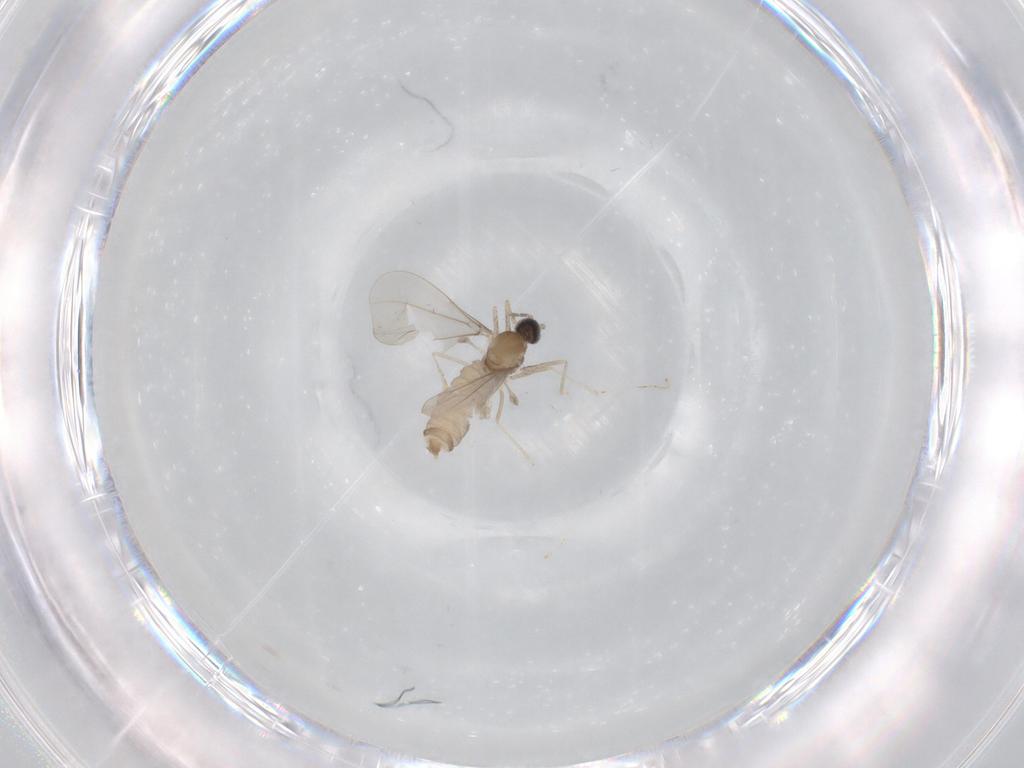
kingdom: Animalia
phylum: Arthropoda
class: Insecta
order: Diptera
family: Cecidomyiidae
